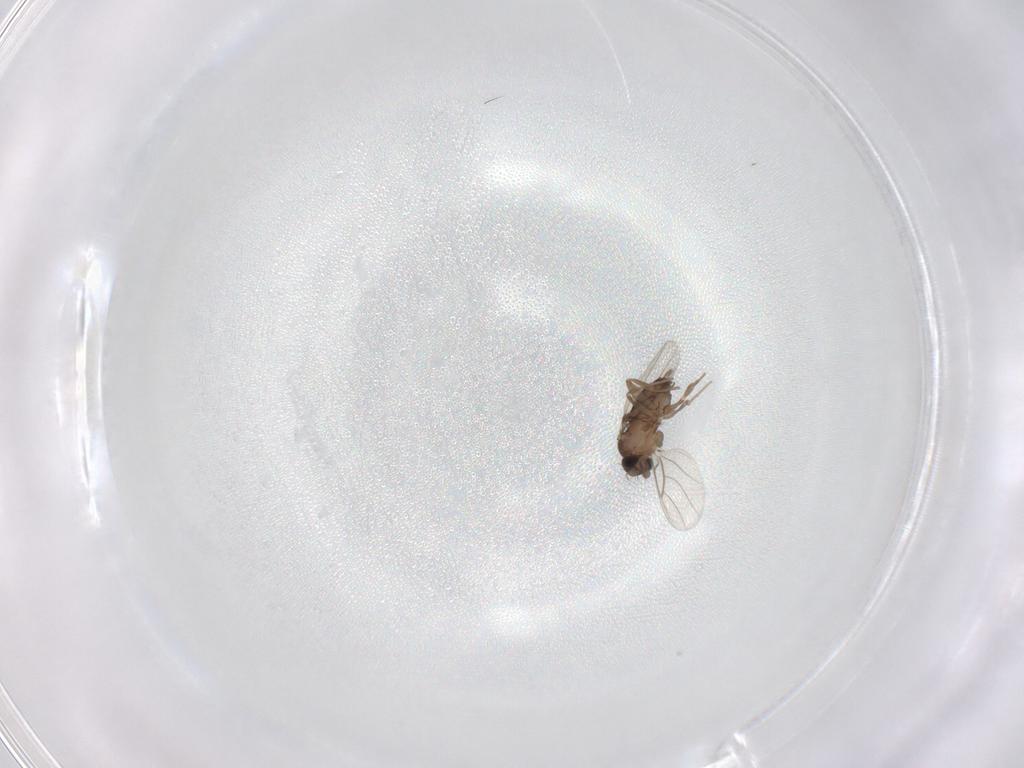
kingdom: Animalia
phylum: Arthropoda
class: Insecta
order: Diptera
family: Phoridae
